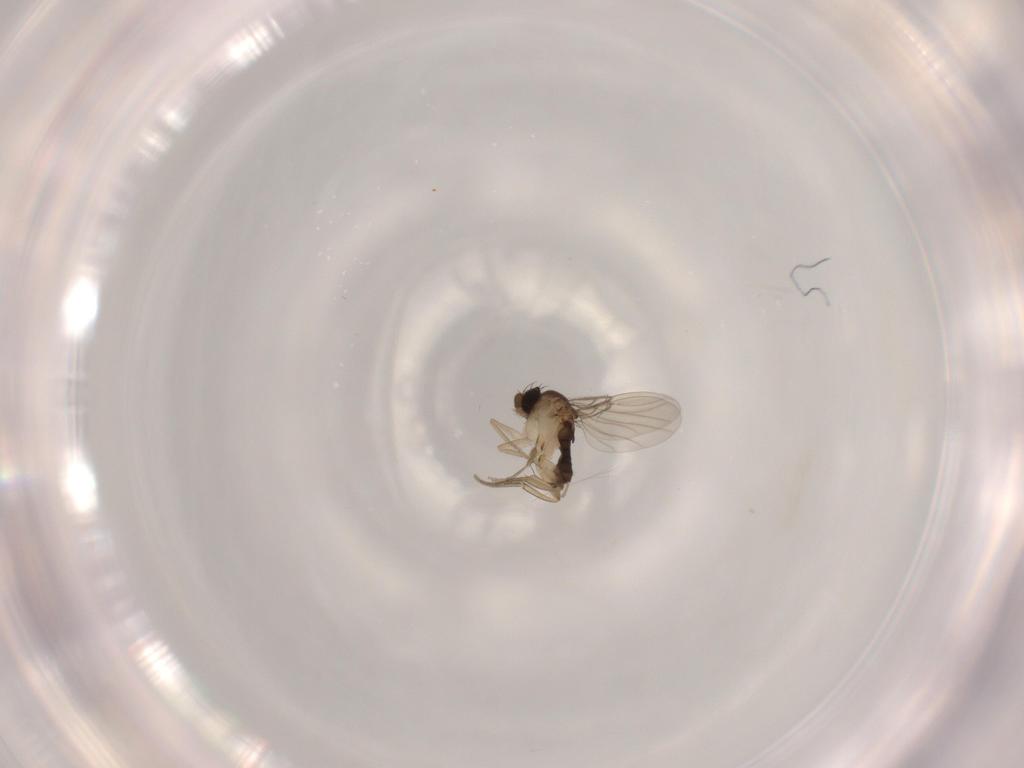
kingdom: Animalia
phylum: Arthropoda
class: Insecta
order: Diptera
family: Phoridae
